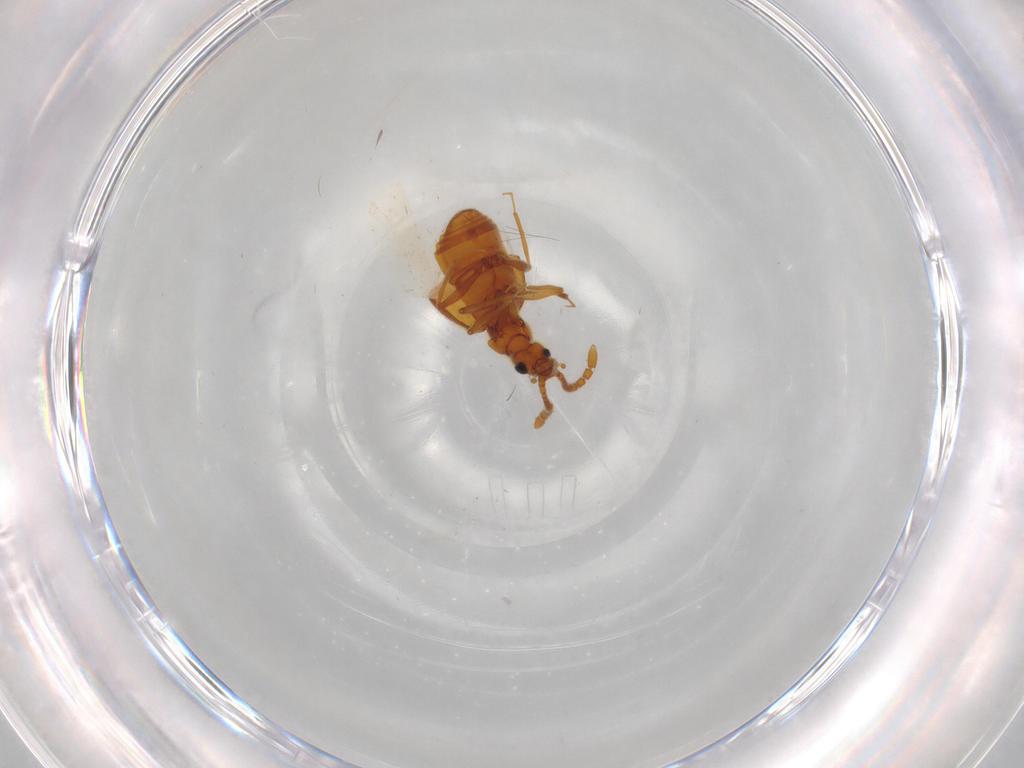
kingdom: Animalia
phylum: Arthropoda
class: Insecta
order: Coleoptera
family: Staphylinidae
